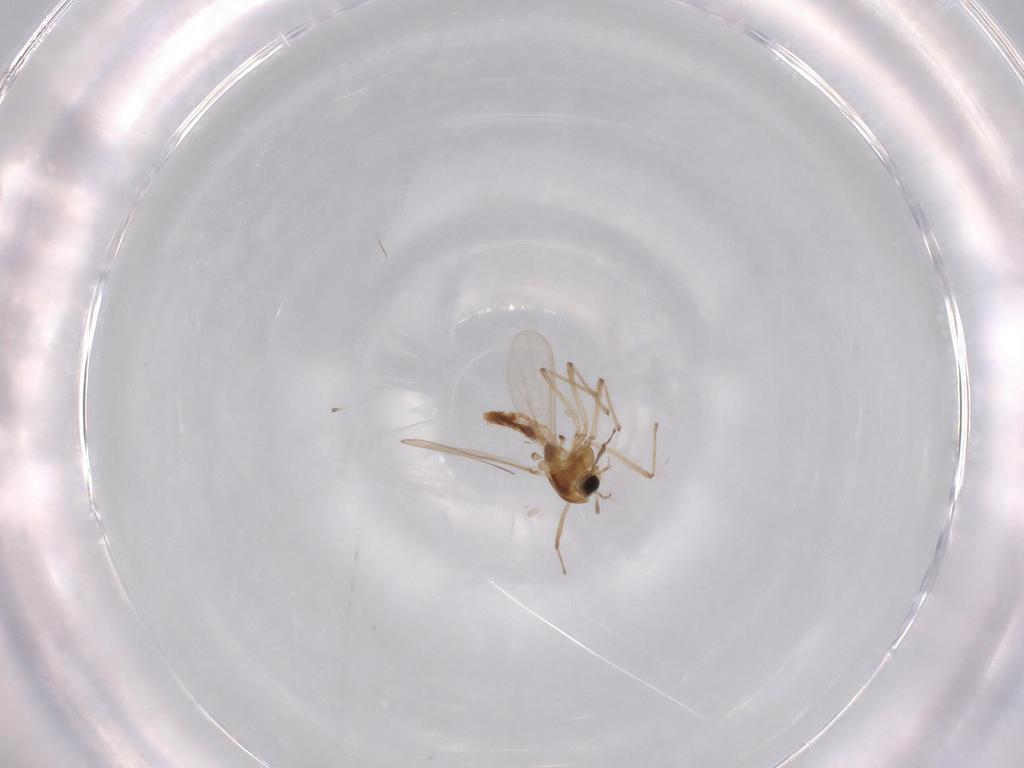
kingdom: Animalia
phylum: Arthropoda
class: Insecta
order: Diptera
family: Chironomidae
